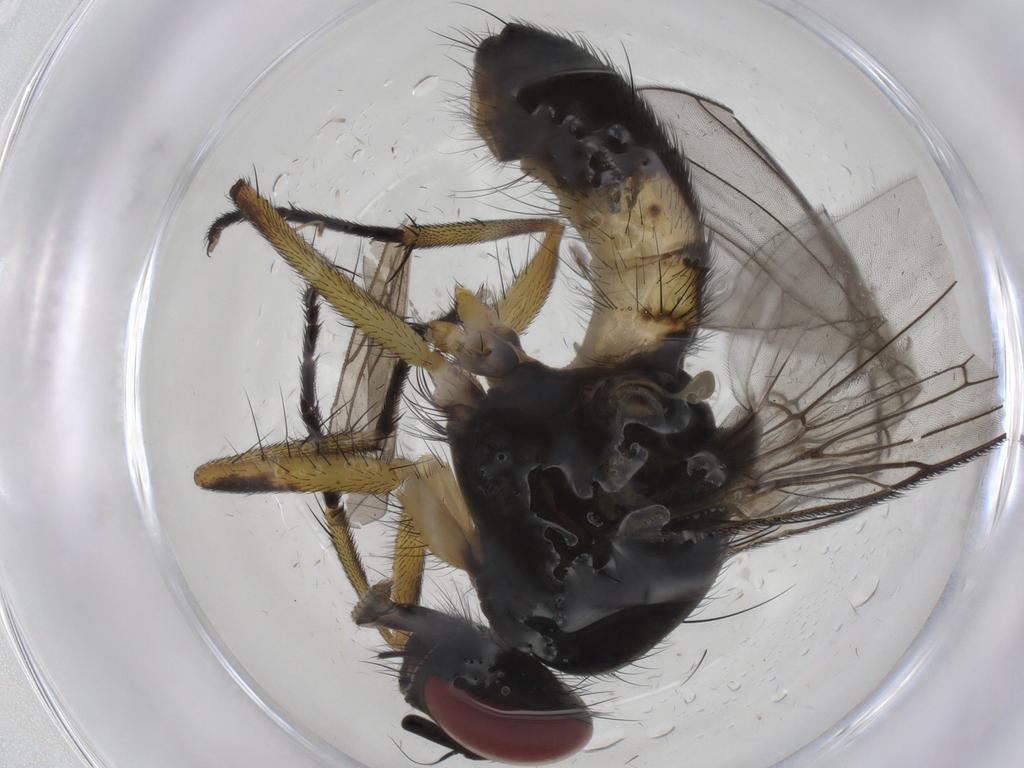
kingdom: Animalia
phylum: Arthropoda
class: Insecta
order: Diptera
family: Muscidae
